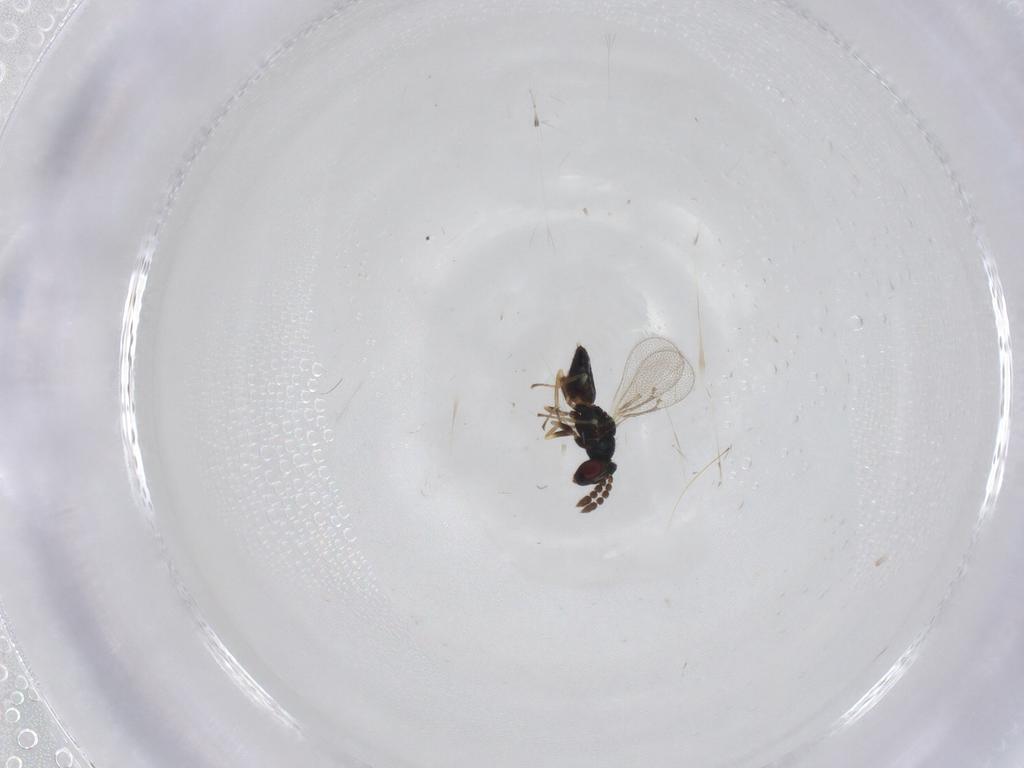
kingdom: Animalia
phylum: Arthropoda
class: Insecta
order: Hymenoptera
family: Eulophidae
